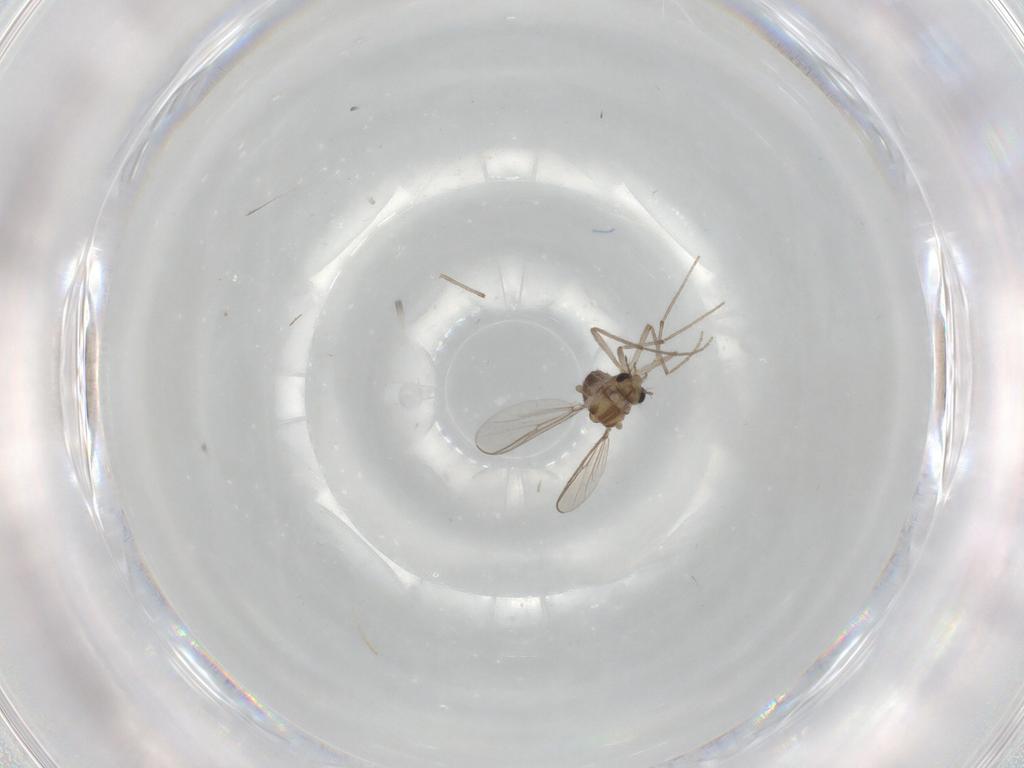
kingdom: Animalia
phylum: Arthropoda
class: Insecta
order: Diptera
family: Chironomidae
